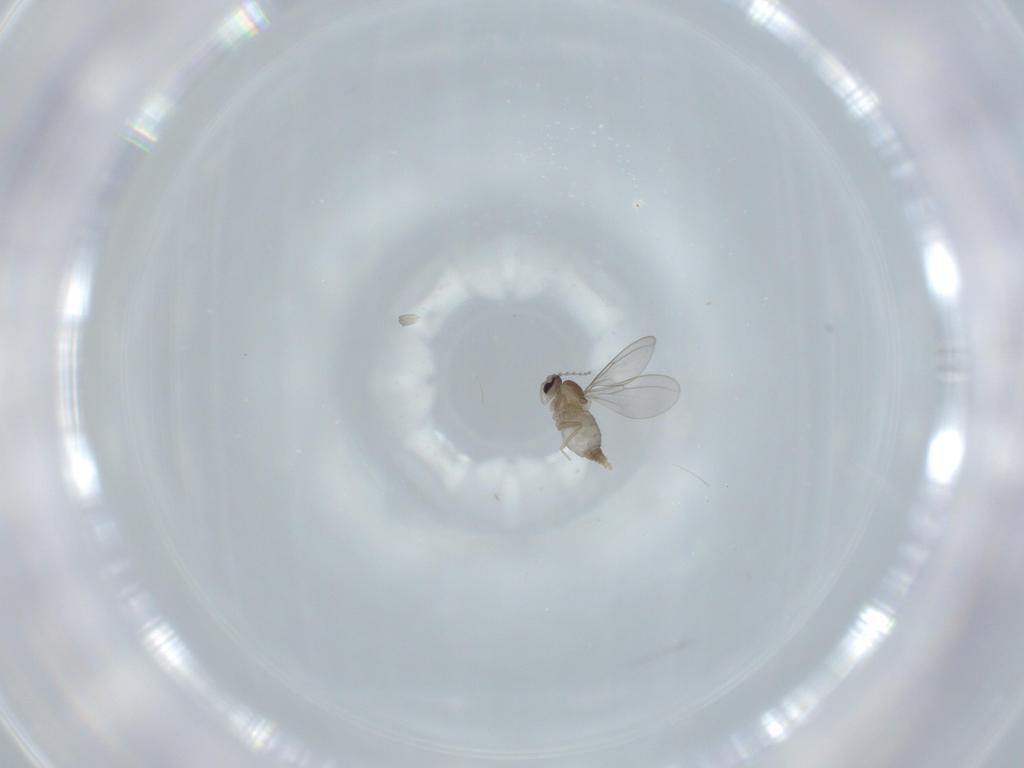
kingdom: Animalia
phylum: Arthropoda
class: Insecta
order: Diptera
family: Cecidomyiidae
